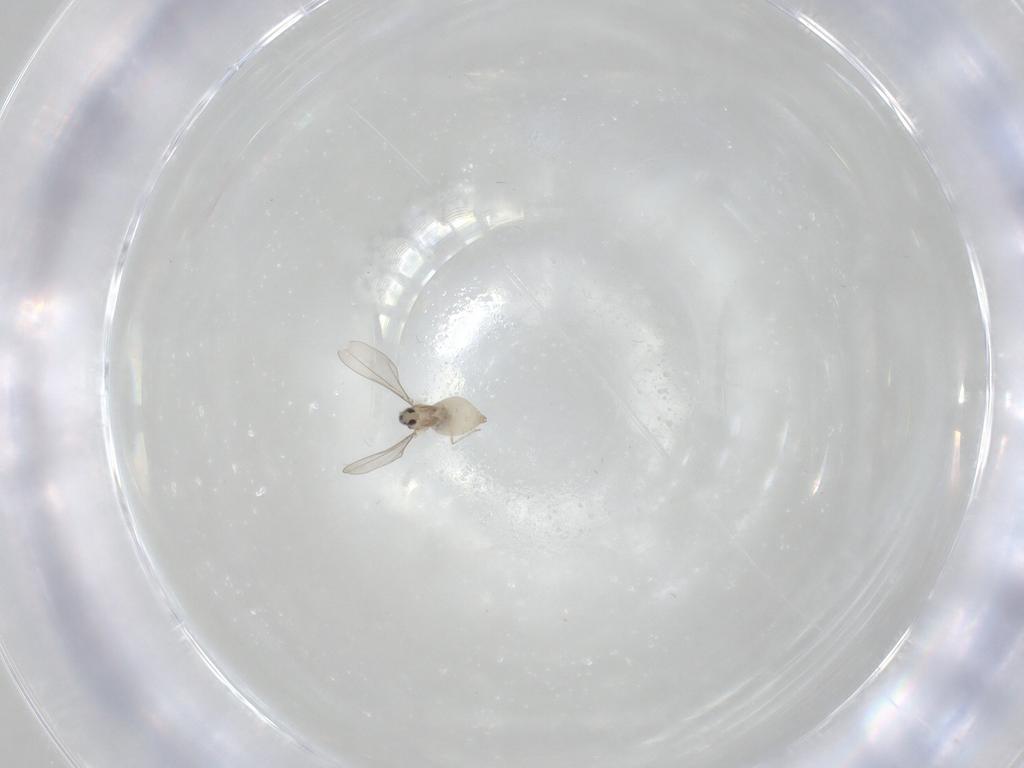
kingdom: Animalia
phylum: Arthropoda
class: Insecta
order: Diptera
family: Cecidomyiidae
